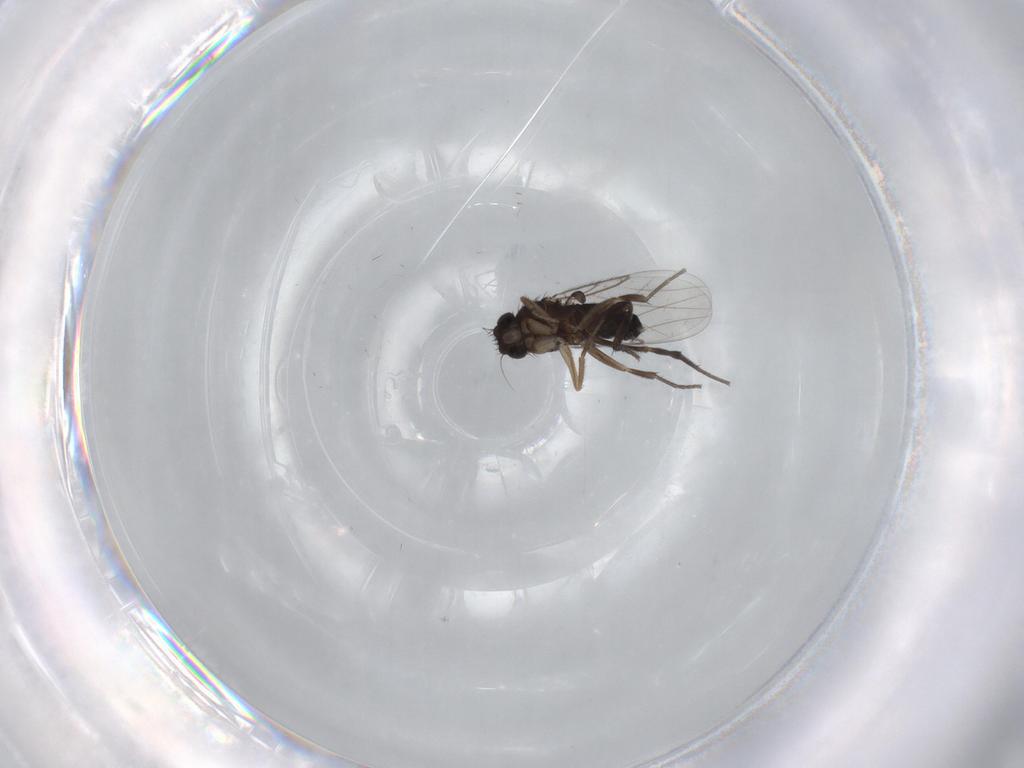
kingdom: Animalia
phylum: Arthropoda
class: Insecta
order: Diptera
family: Phoridae
